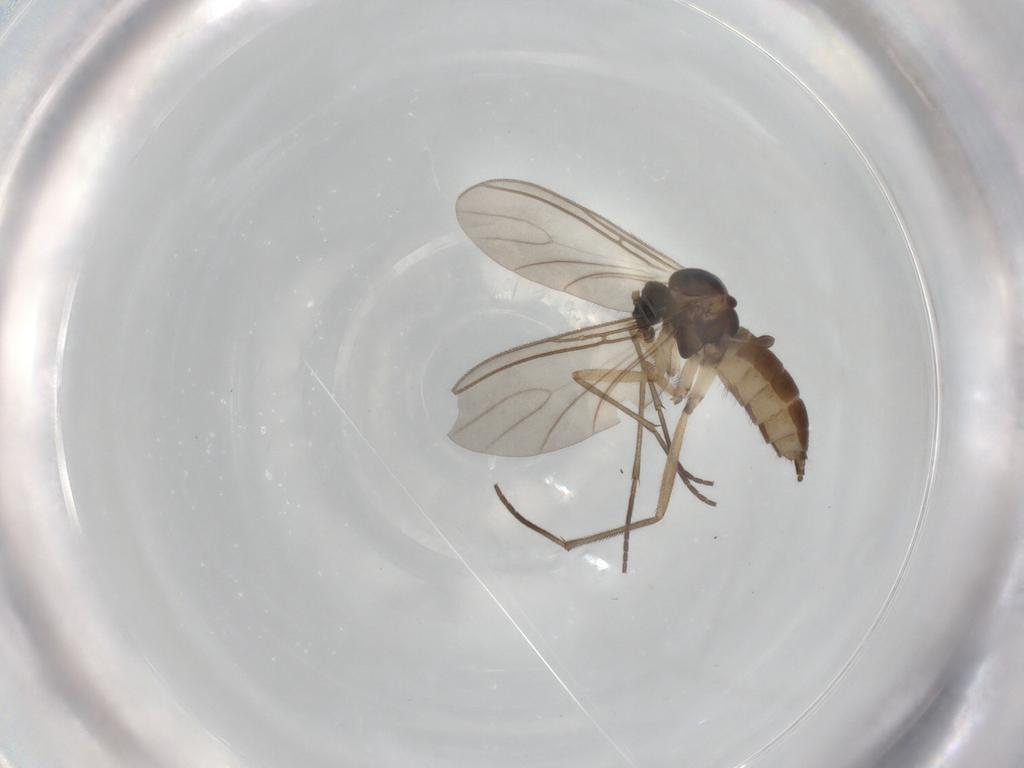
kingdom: Animalia
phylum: Arthropoda
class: Insecta
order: Diptera
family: Sciaridae
